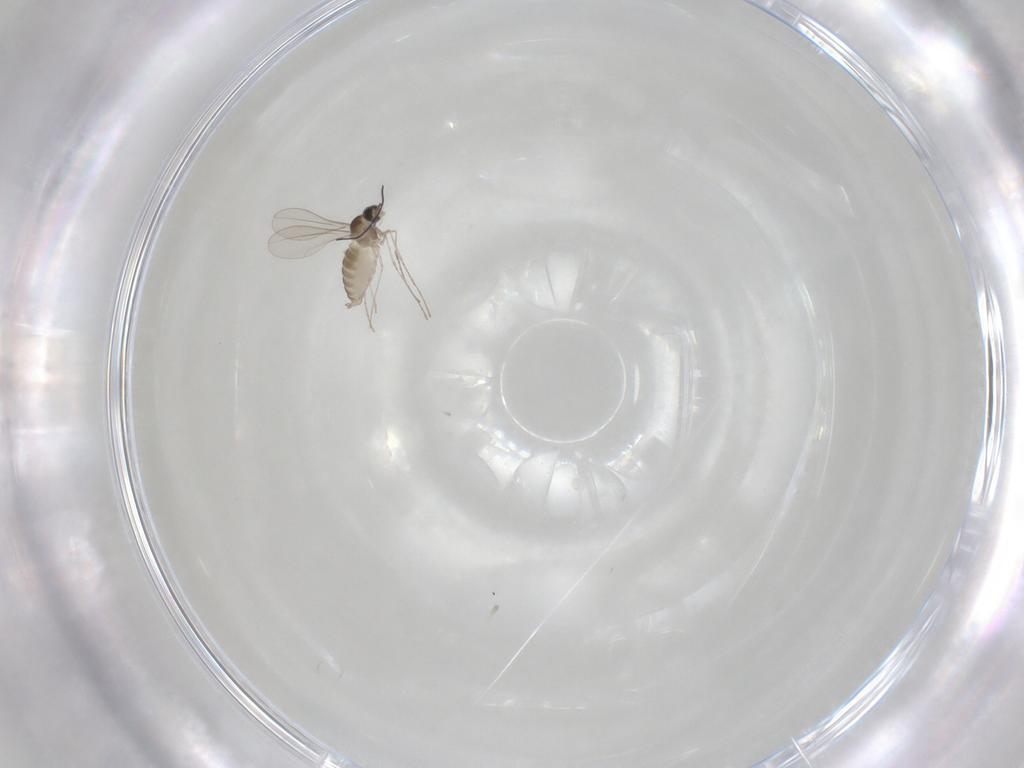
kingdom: Animalia
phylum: Arthropoda
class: Insecta
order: Diptera
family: Cecidomyiidae
